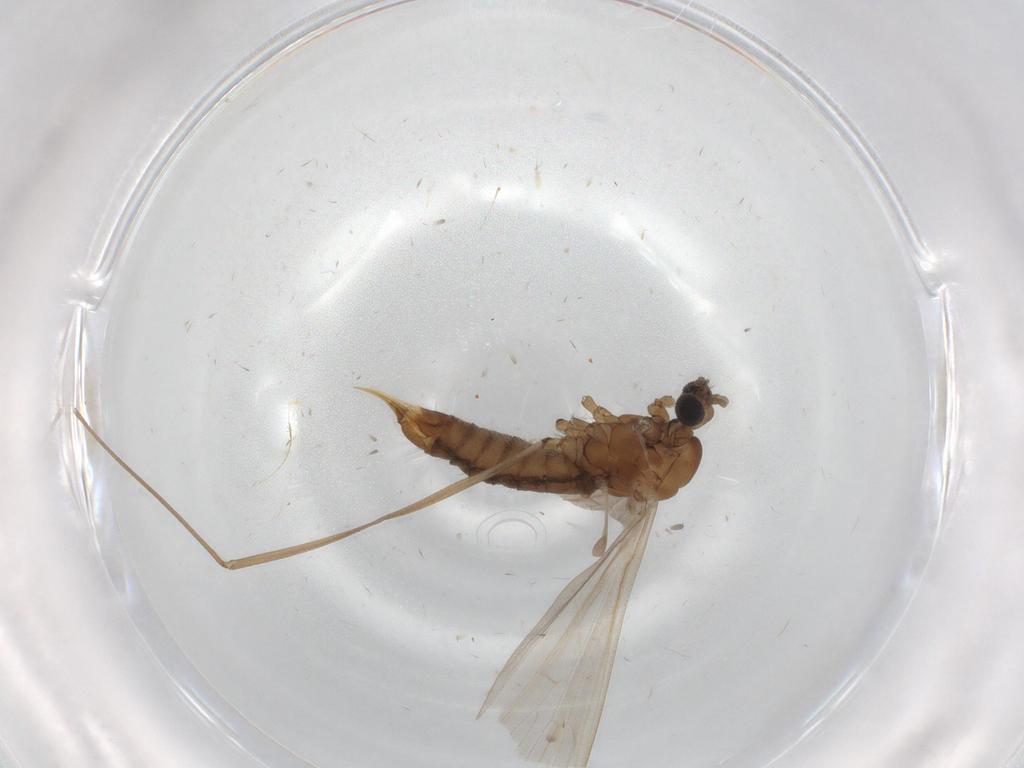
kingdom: Animalia
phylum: Arthropoda
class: Insecta
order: Diptera
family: Limoniidae
